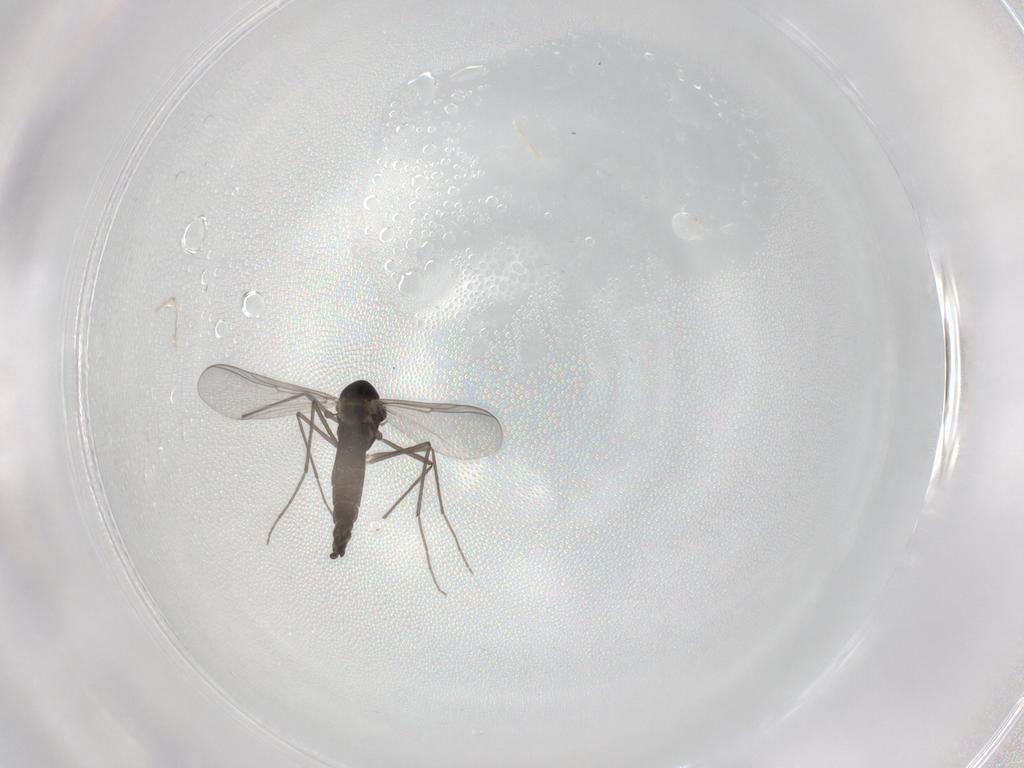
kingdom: Animalia
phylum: Arthropoda
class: Insecta
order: Diptera
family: Chironomidae
